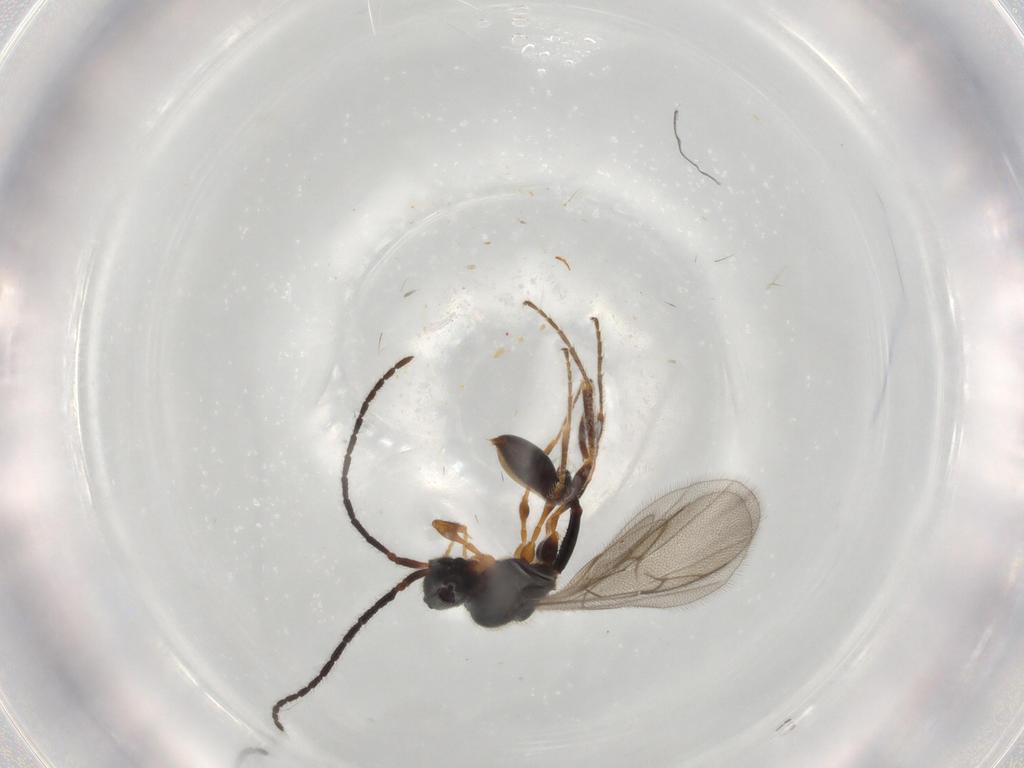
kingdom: Animalia
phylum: Arthropoda
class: Insecta
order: Hymenoptera
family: Diapriidae
